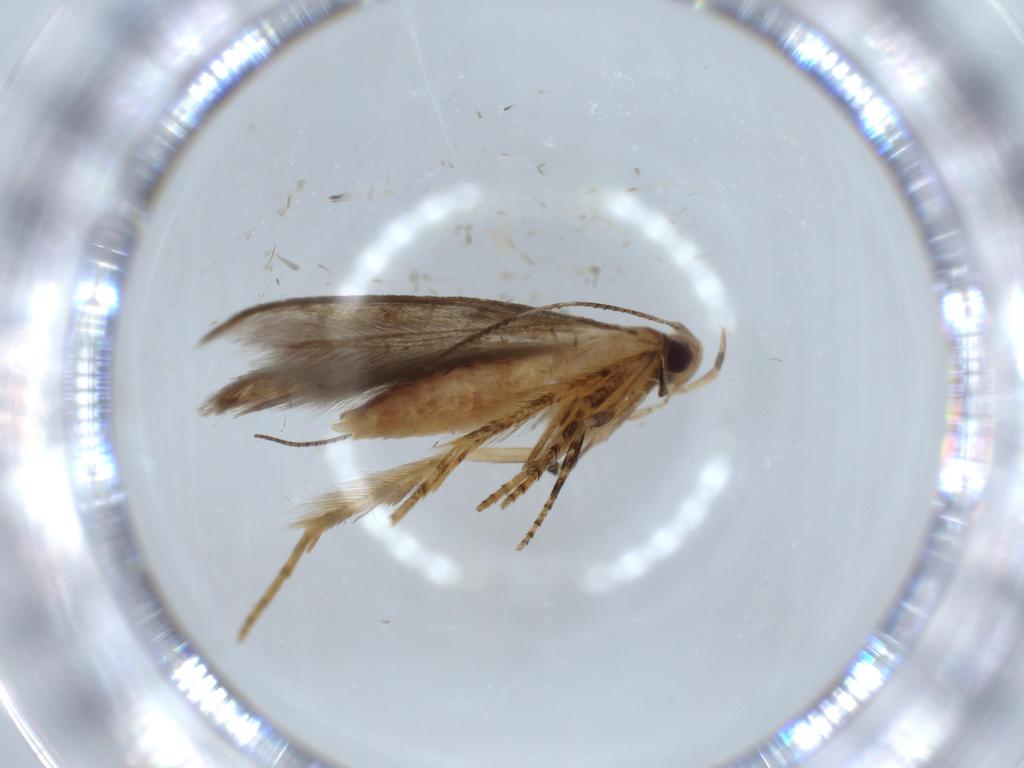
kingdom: Animalia
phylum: Arthropoda
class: Insecta
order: Lepidoptera
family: Heliodinidae
